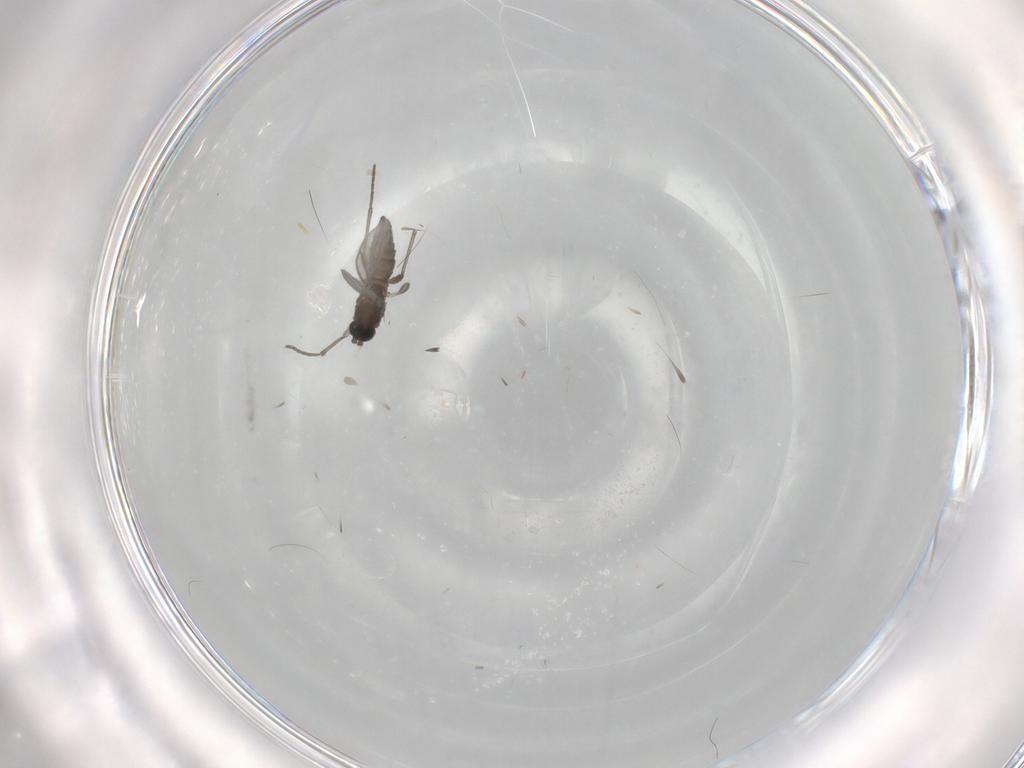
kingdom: Animalia
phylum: Arthropoda
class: Insecta
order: Diptera
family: Sciaridae
